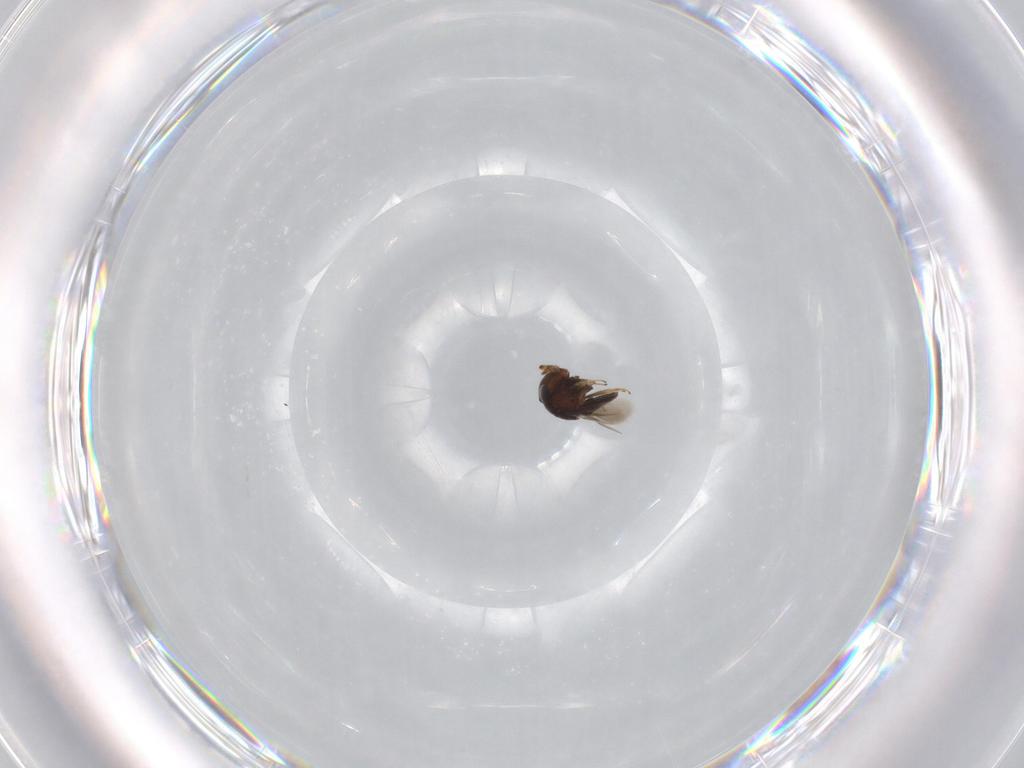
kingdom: Animalia
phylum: Arthropoda
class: Insecta
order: Hymenoptera
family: Scelionidae
